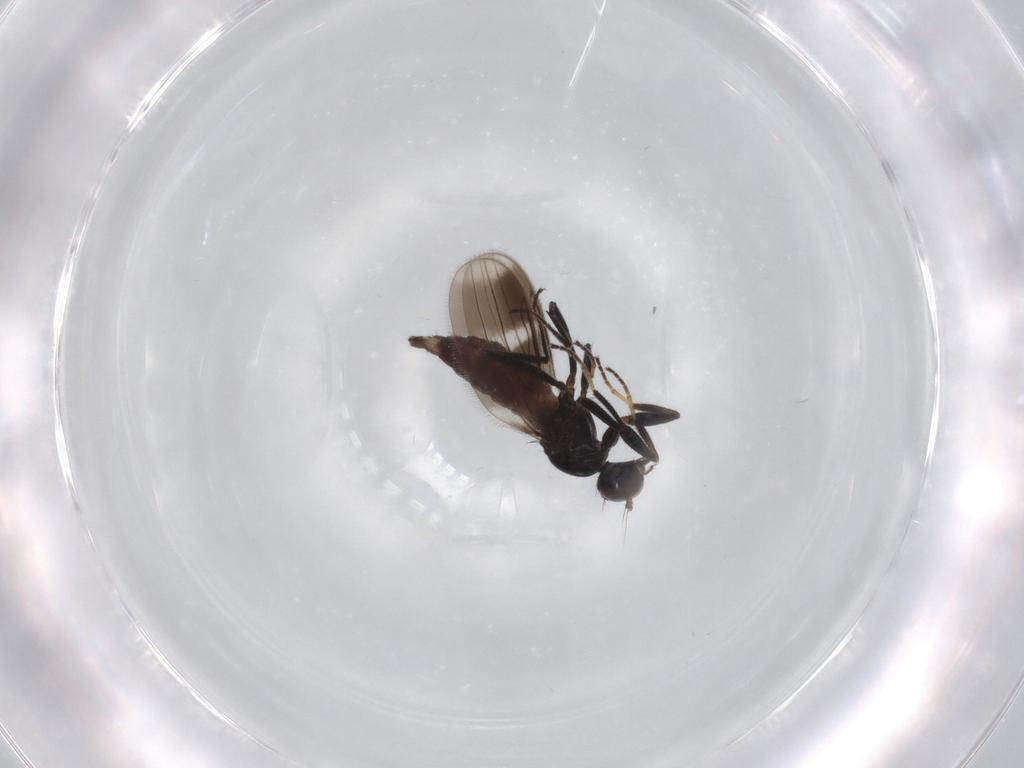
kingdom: Animalia
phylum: Arthropoda
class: Insecta
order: Diptera
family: Hybotidae
